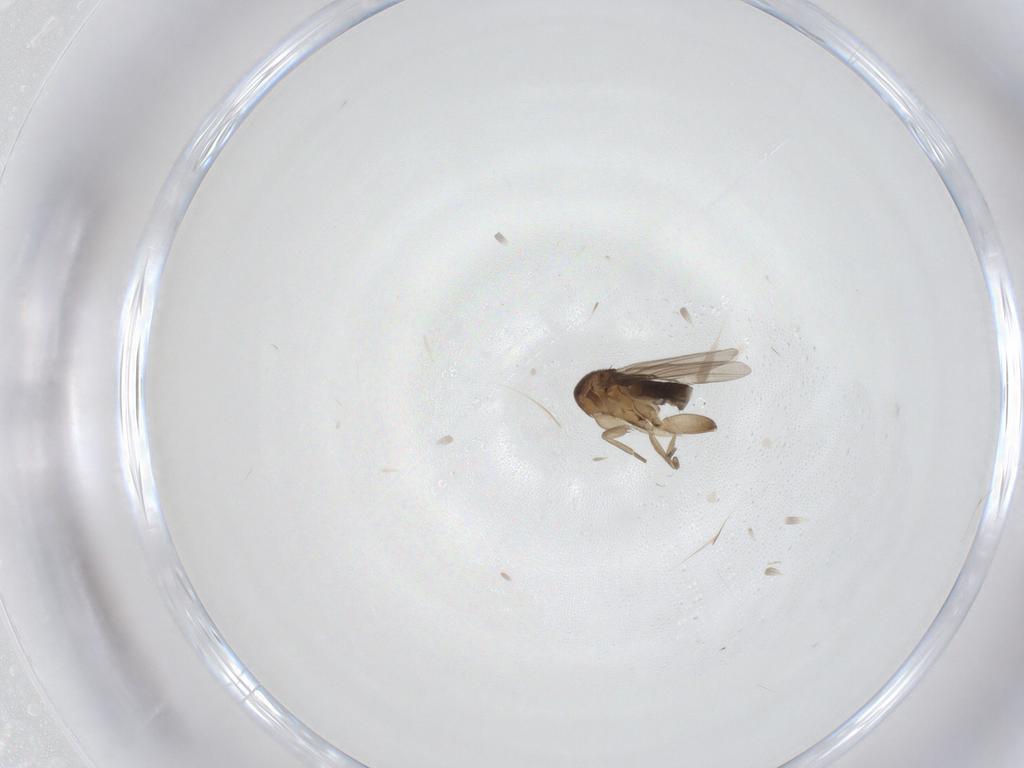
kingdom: Animalia
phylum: Arthropoda
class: Insecta
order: Diptera
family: Phoridae
